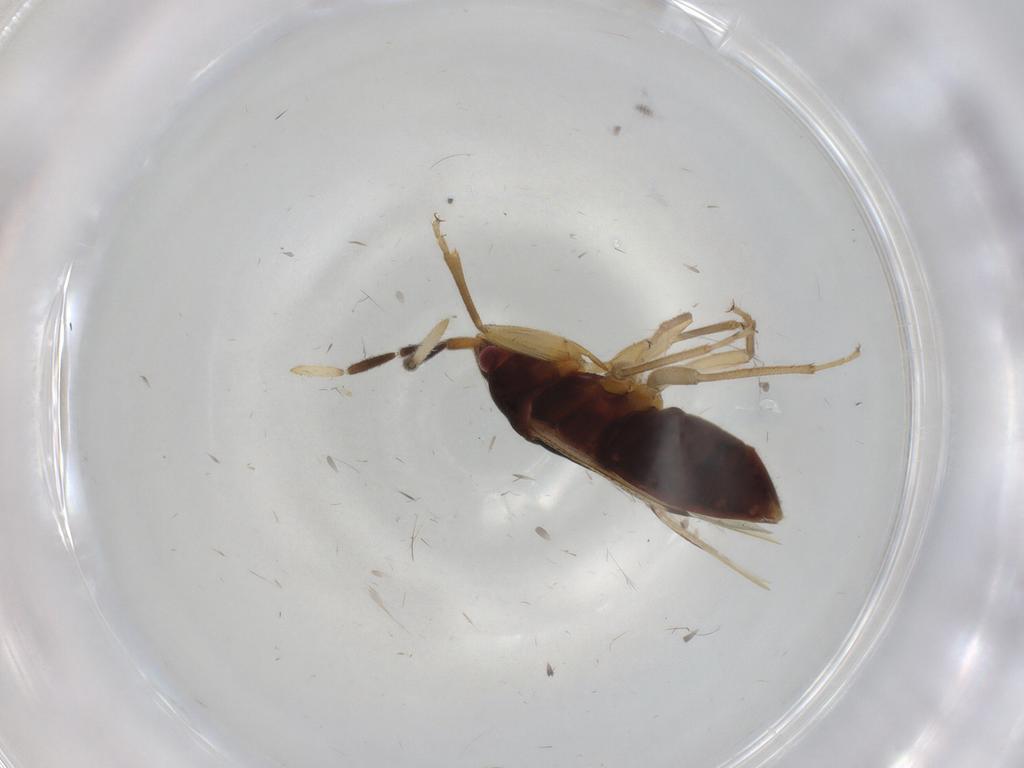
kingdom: Animalia
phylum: Arthropoda
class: Insecta
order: Hemiptera
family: Rhyparochromidae
